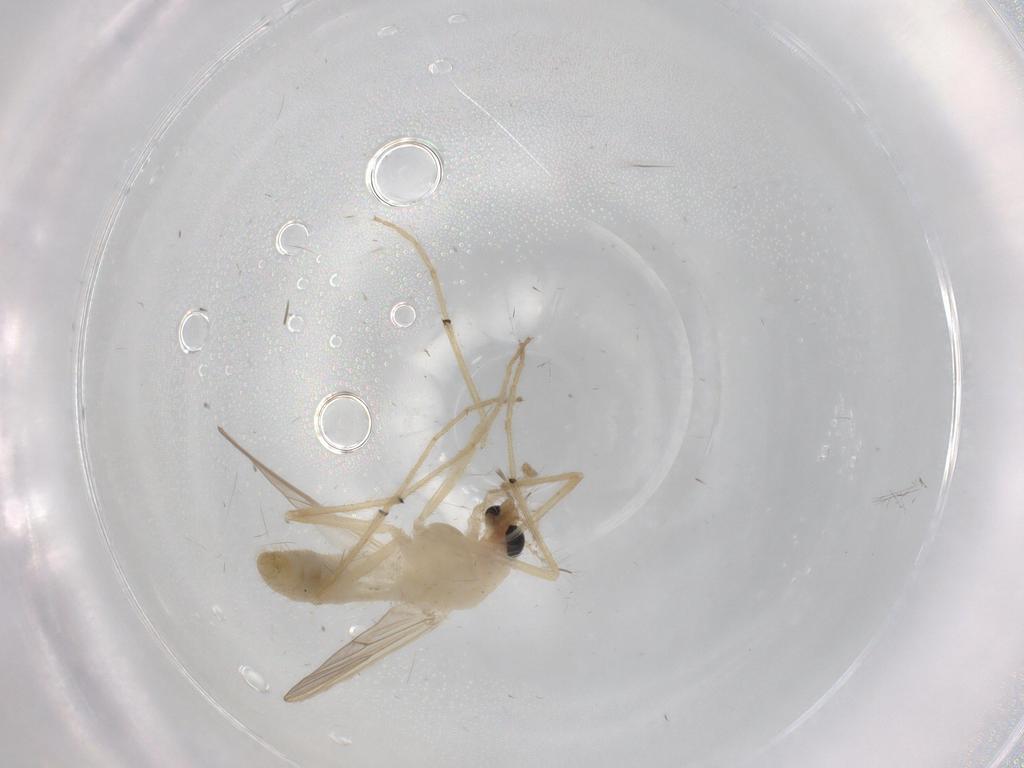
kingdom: Animalia
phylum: Arthropoda
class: Insecta
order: Diptera
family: Chironomidae
